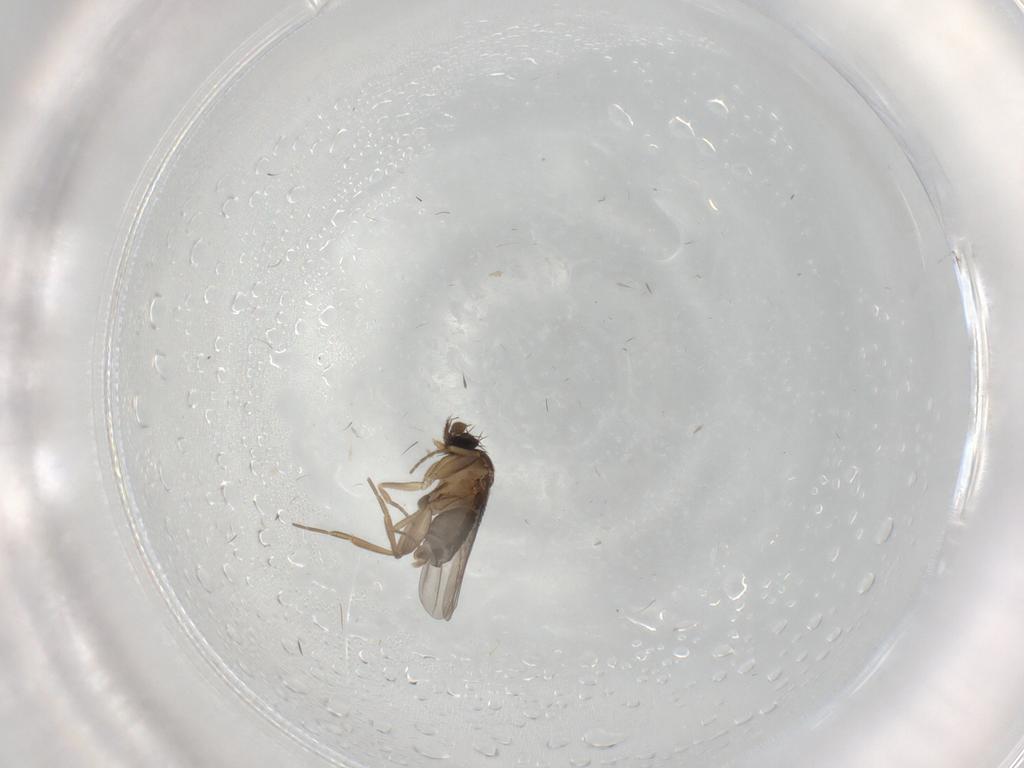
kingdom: Animalia
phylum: Arthropoda
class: Insecta
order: Diptera
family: Phoridae
